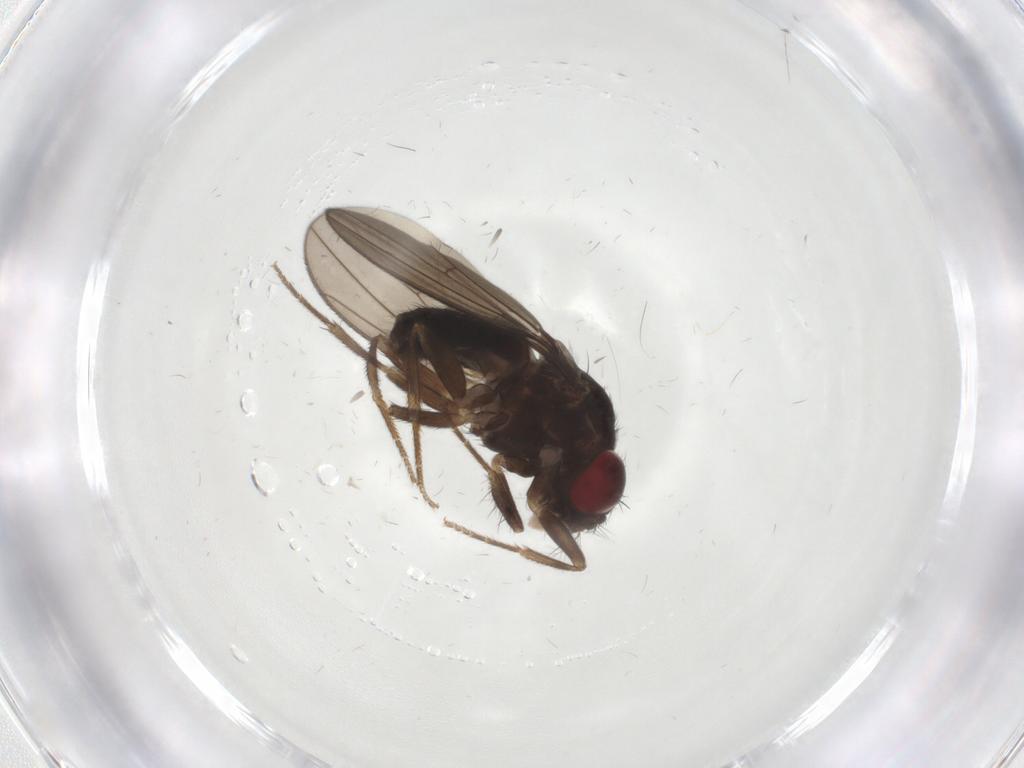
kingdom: Animalia
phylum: Arthropoda
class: Insecta
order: Diptera
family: Drosophilidae
